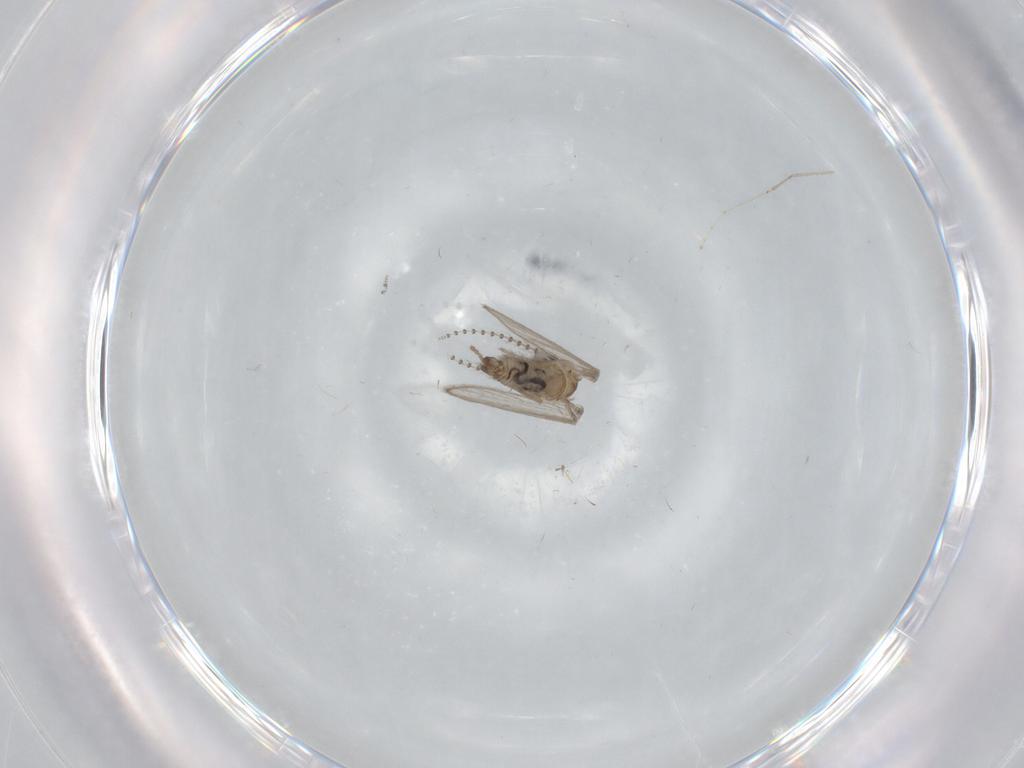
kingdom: Animalia
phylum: Arthropoda
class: Insecta
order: Diptera
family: Psychodidae
